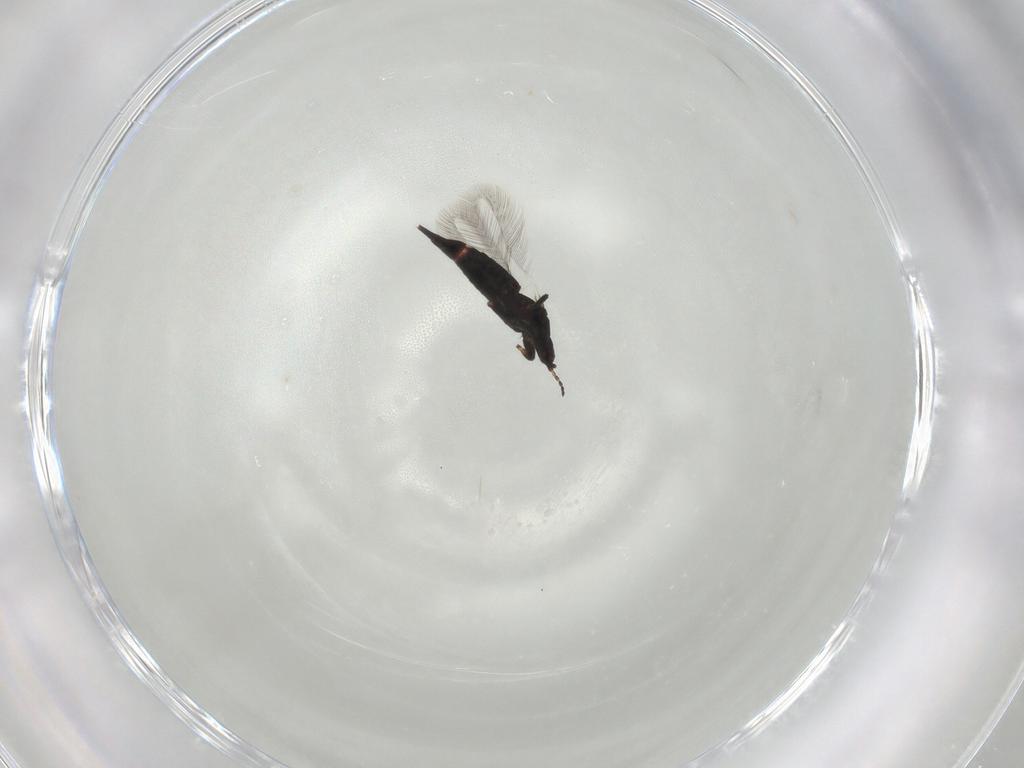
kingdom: Animalia
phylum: Arthropoda
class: Insecta
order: Thysanoptera
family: Phlaeothripidae
